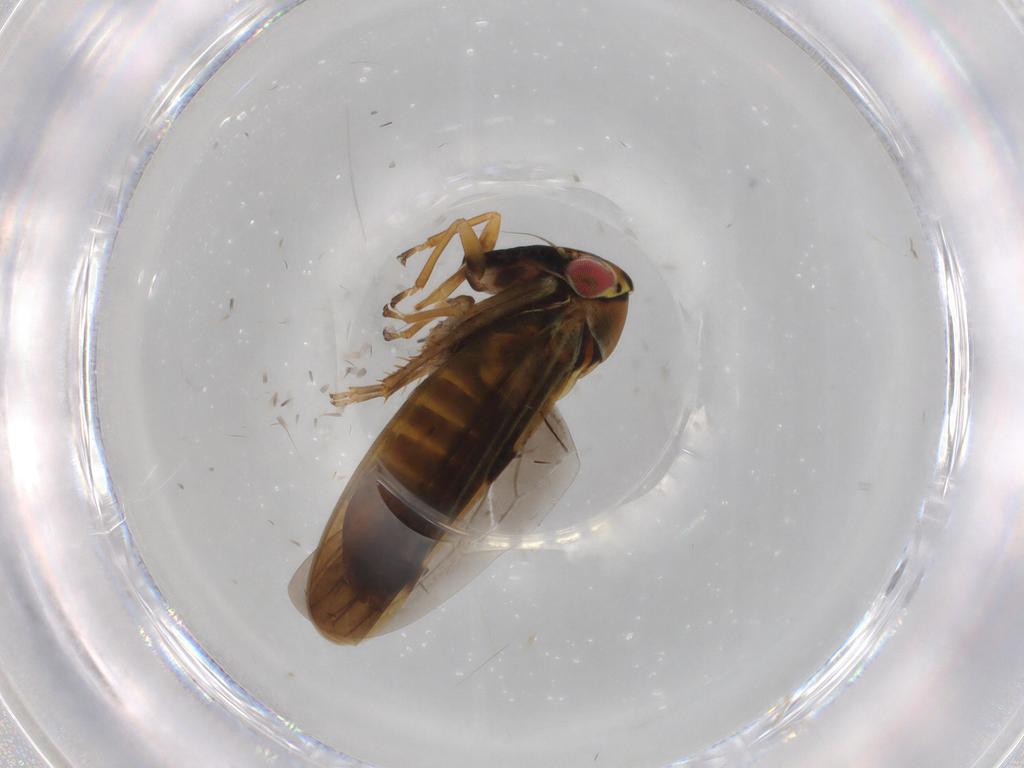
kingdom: Animalia
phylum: Arthropoda
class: Insecta
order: Hemiptera
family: Cicadellidae
